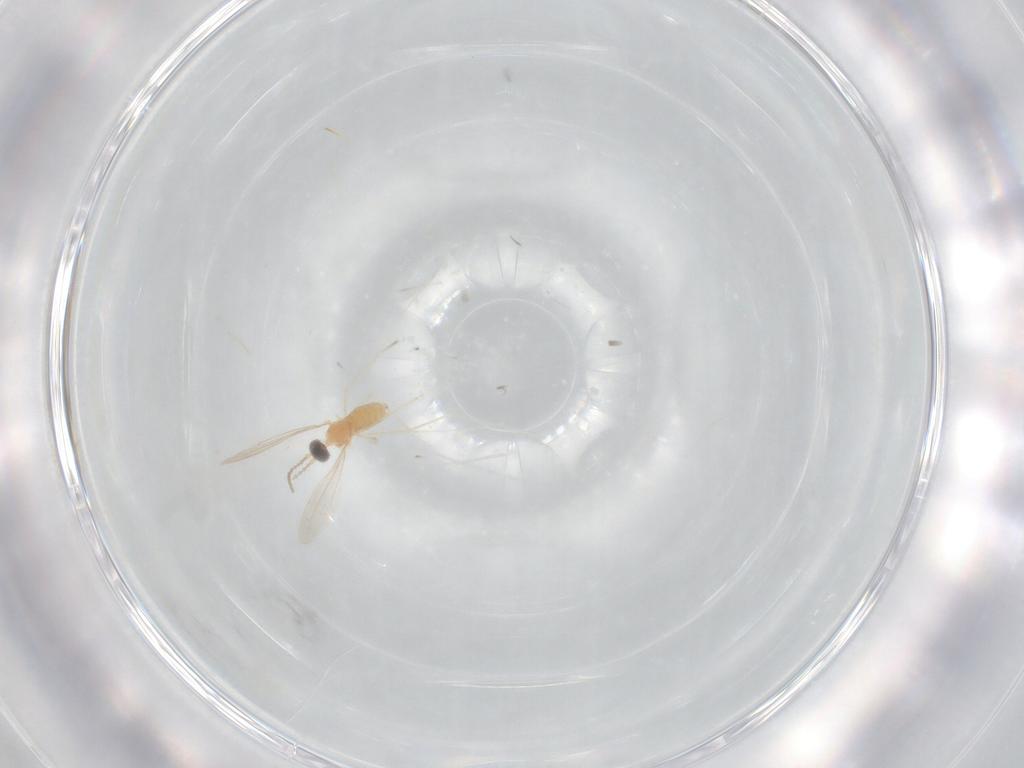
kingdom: Animalia
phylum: Arthropoda
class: Insecta
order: Diptera
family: Cecidomyiidae
